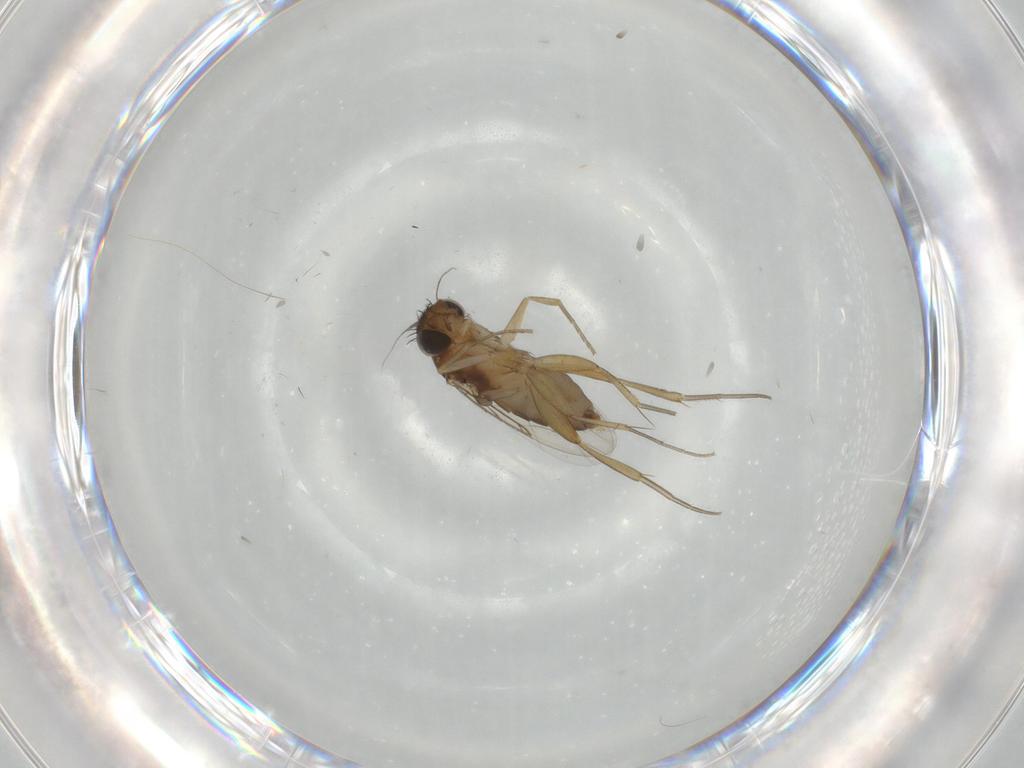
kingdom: Animalia
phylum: Arthropoda
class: Insecta
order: Diptera
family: Phoridae
